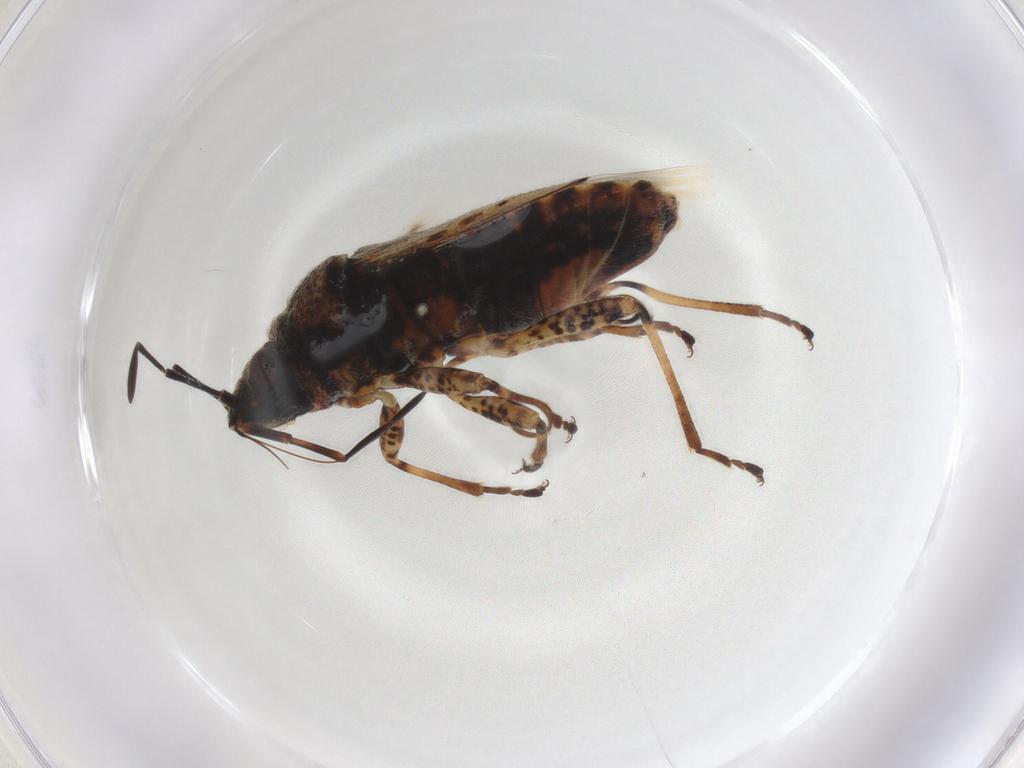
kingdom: Animalia
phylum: Arthropoda
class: Insecta
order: Hemiptera
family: Lygaeidae
